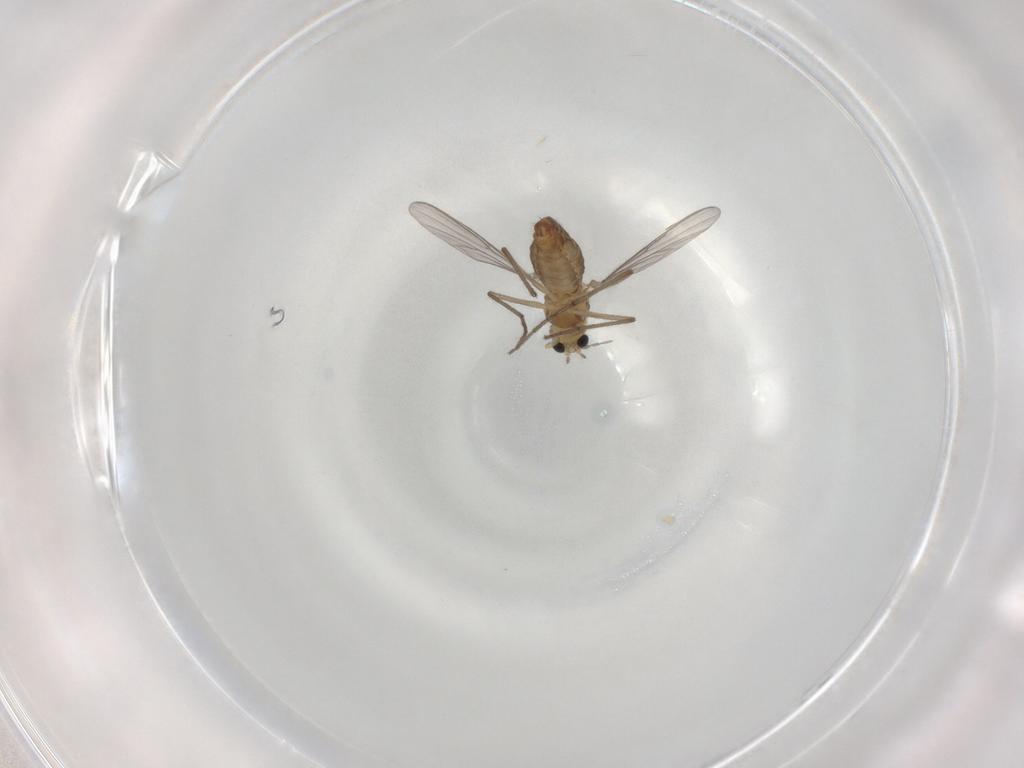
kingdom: Animalia
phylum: Arthropoda
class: Insecta
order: Diptera
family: Chironomidae
